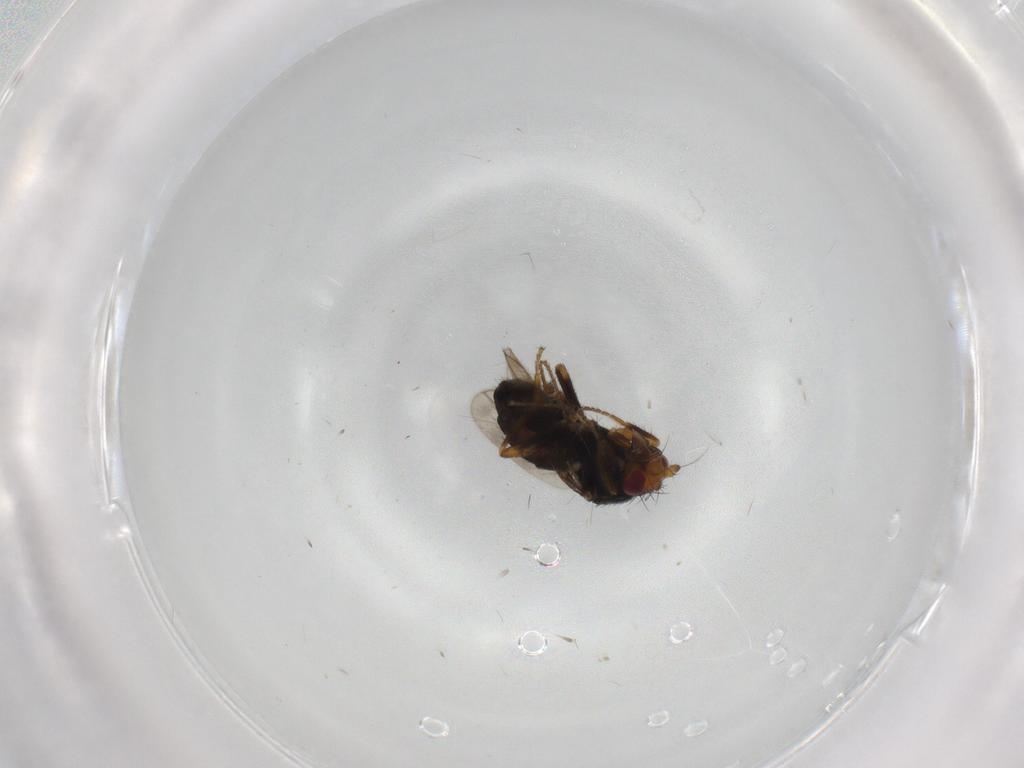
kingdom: Animalia
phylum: Arthropoda
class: Insecta
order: Diptera
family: Sphaeroceridae
